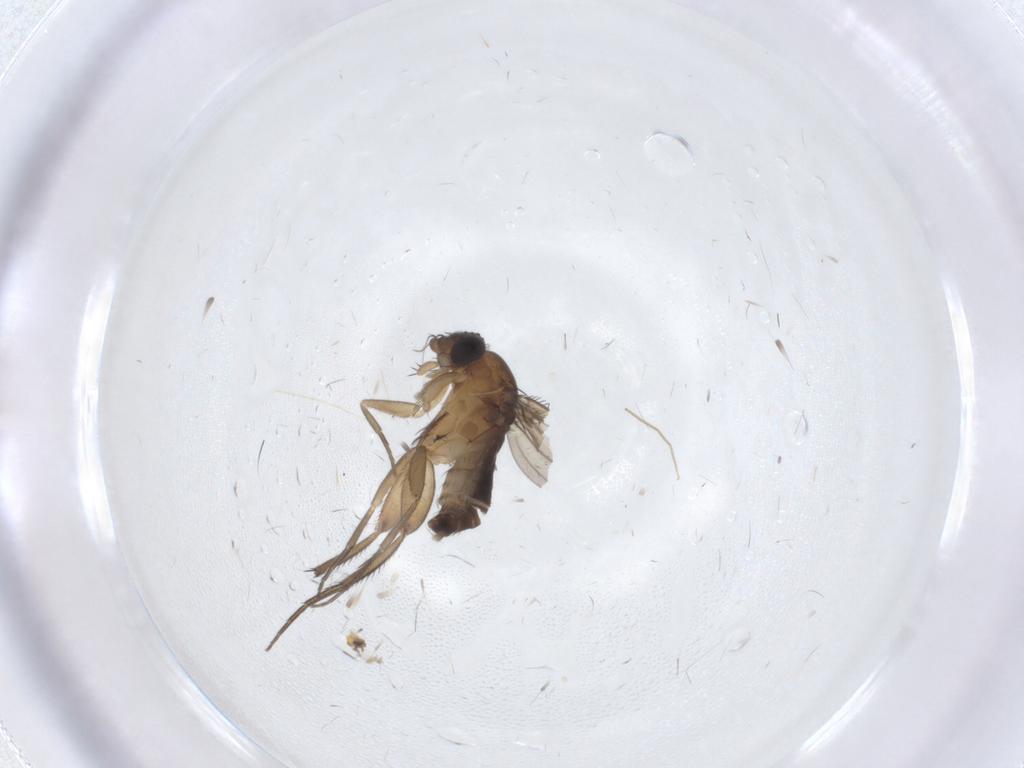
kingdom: Animalia
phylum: Arthropoda
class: Insecta
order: Diptera
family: Phoridae
